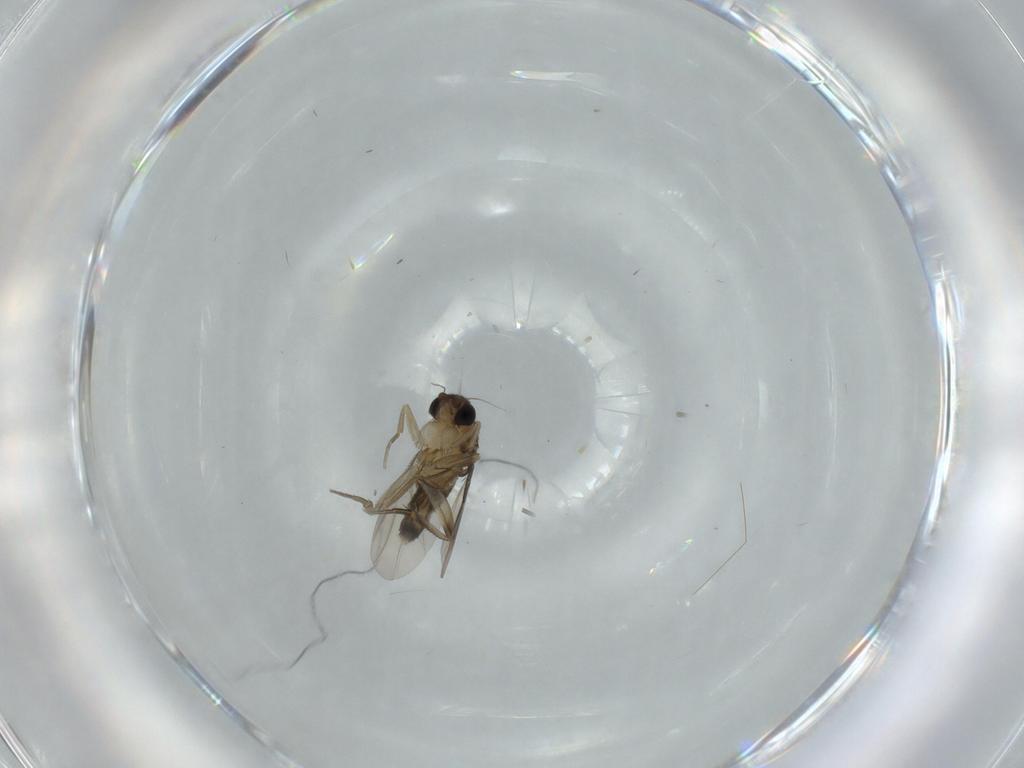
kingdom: Animalia
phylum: Arthropoda
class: Insecta
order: Diptera
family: Phoridae
